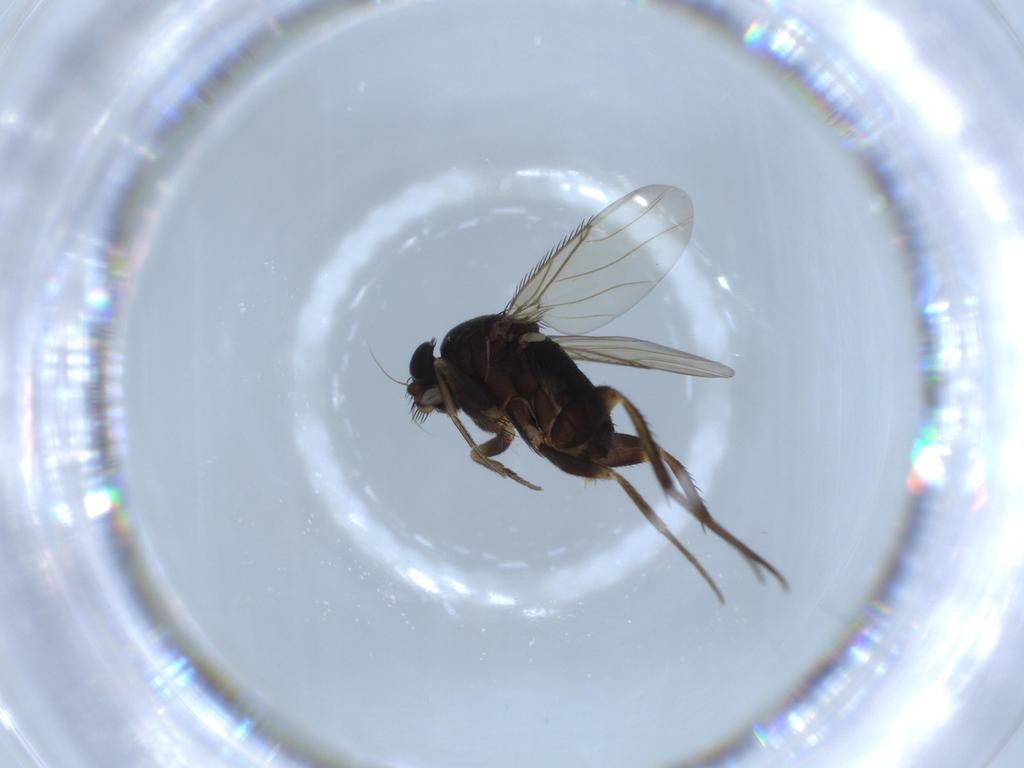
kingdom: Animalia
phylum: Arthropoda
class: Insecta
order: Diptera
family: Phoridae
